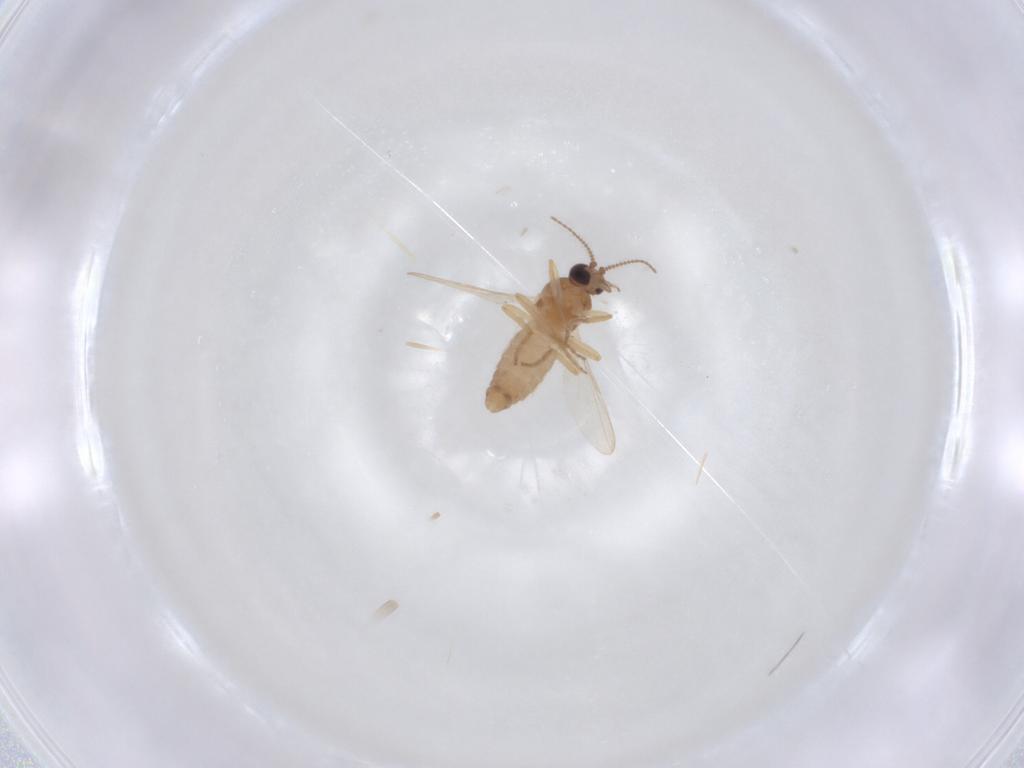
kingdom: Animalia
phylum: Arthropoda
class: Insecta
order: Diptera
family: Ceratopogonidae
